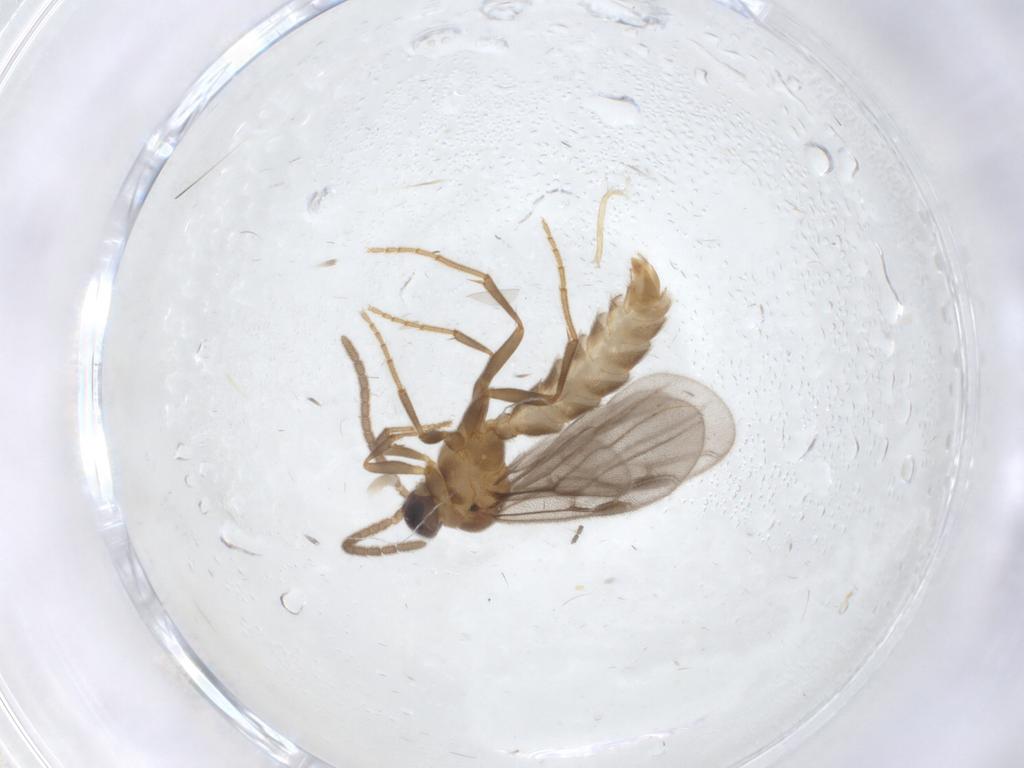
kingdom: Animalia
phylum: Arthropoda
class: Insecta
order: Hymenoptera
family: Formicidae
